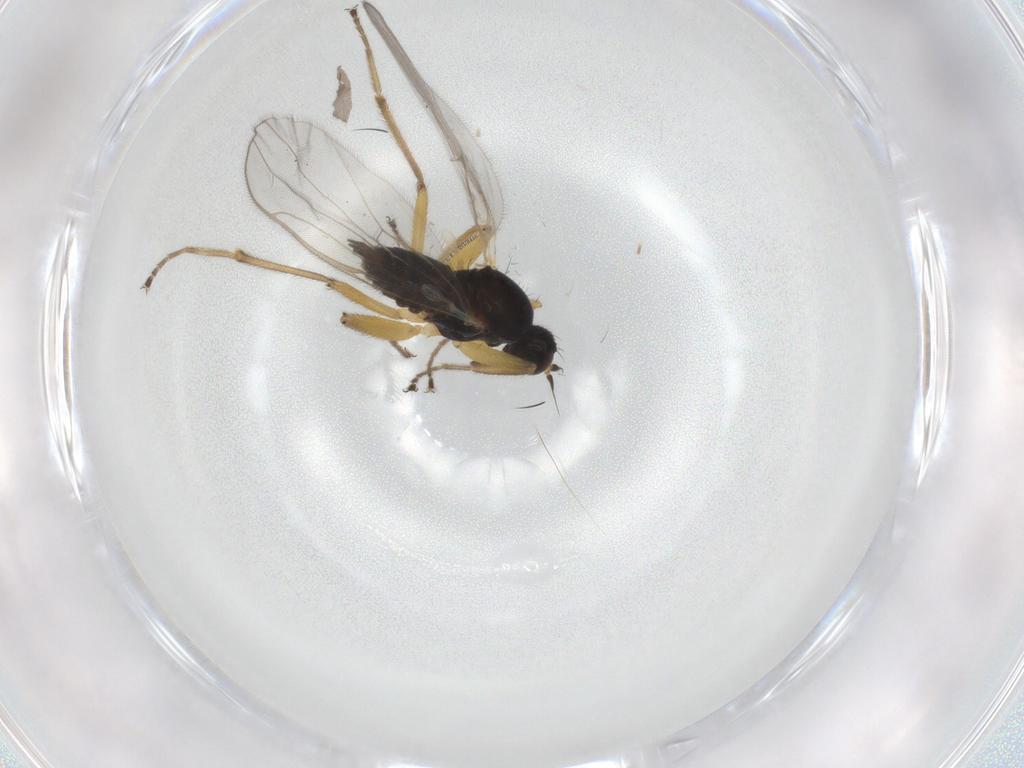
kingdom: Animalia
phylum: Arthropoda
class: Insecta
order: Diptera
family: Hybotidae
